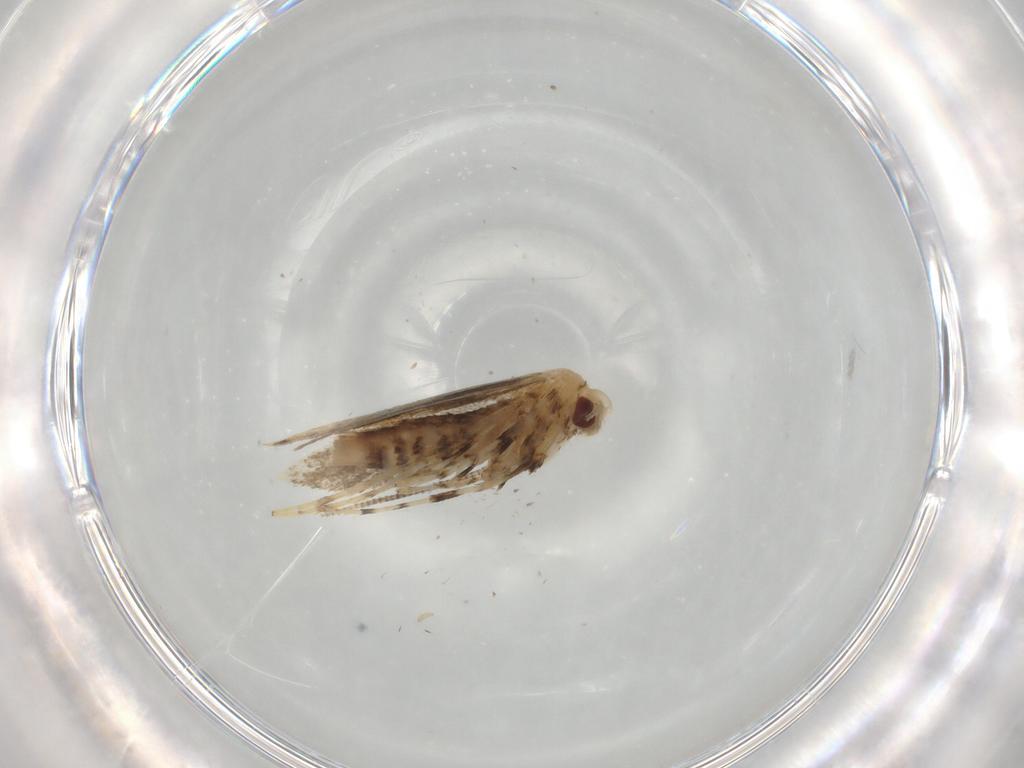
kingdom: Animalia
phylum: Arthropoda
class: Insecta
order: Lepidoptera
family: Gracillariidae
